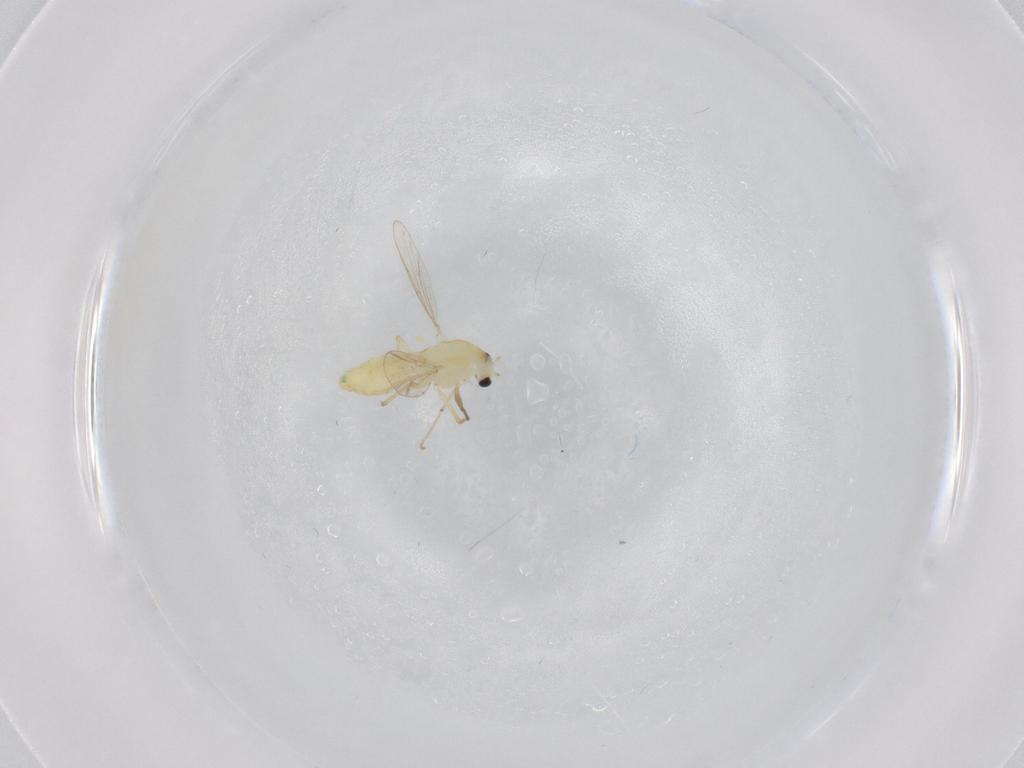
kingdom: Animalia
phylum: Arthropoda
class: Insecta
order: Diptera
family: Chironomidae
